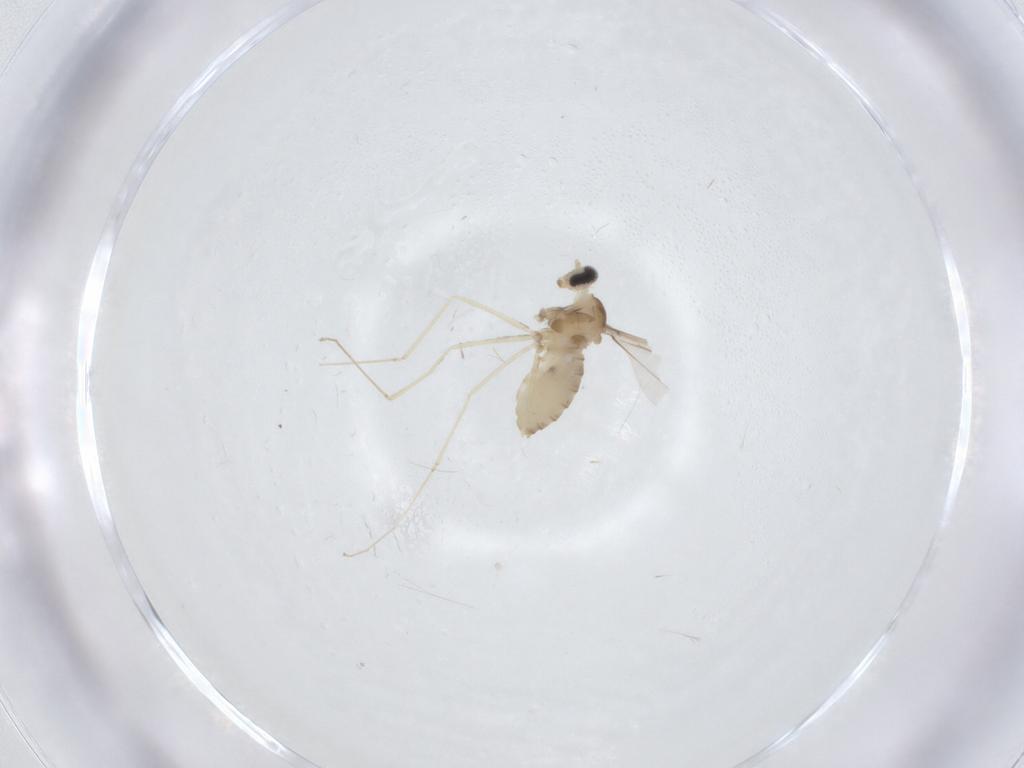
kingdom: Animalia
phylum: Arthropoda
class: Insecta
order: Diptera
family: Cecidomyiidae
